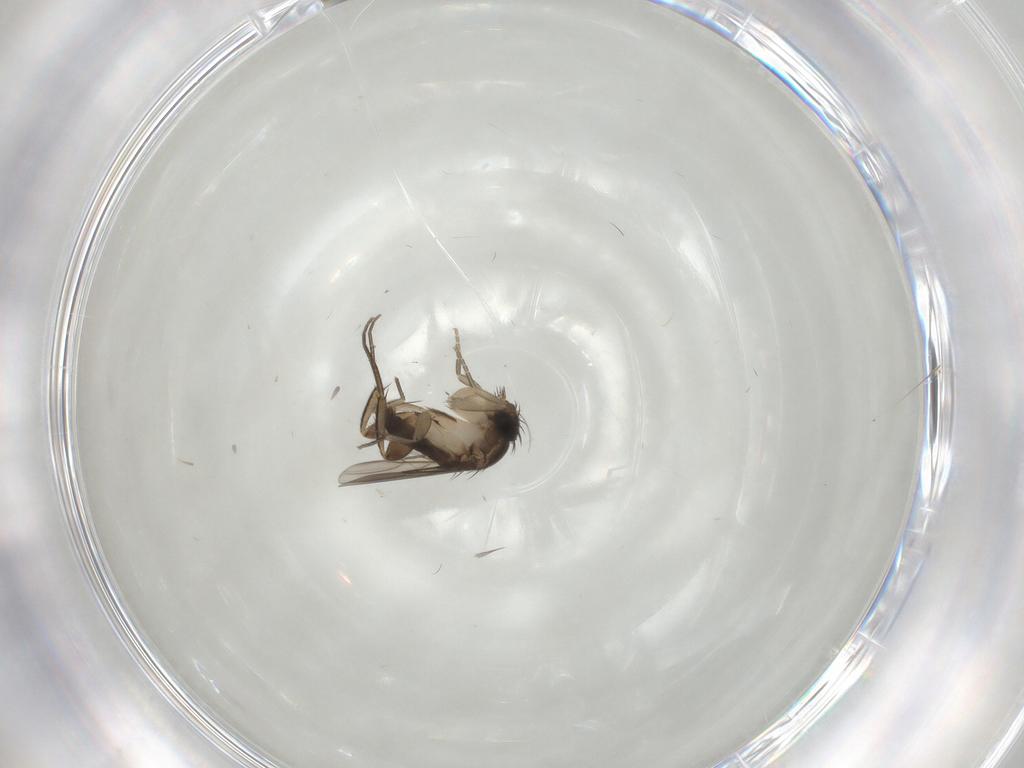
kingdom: Animalia
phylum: Arthropoda
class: Insecta
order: Diptera
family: Phoridae
